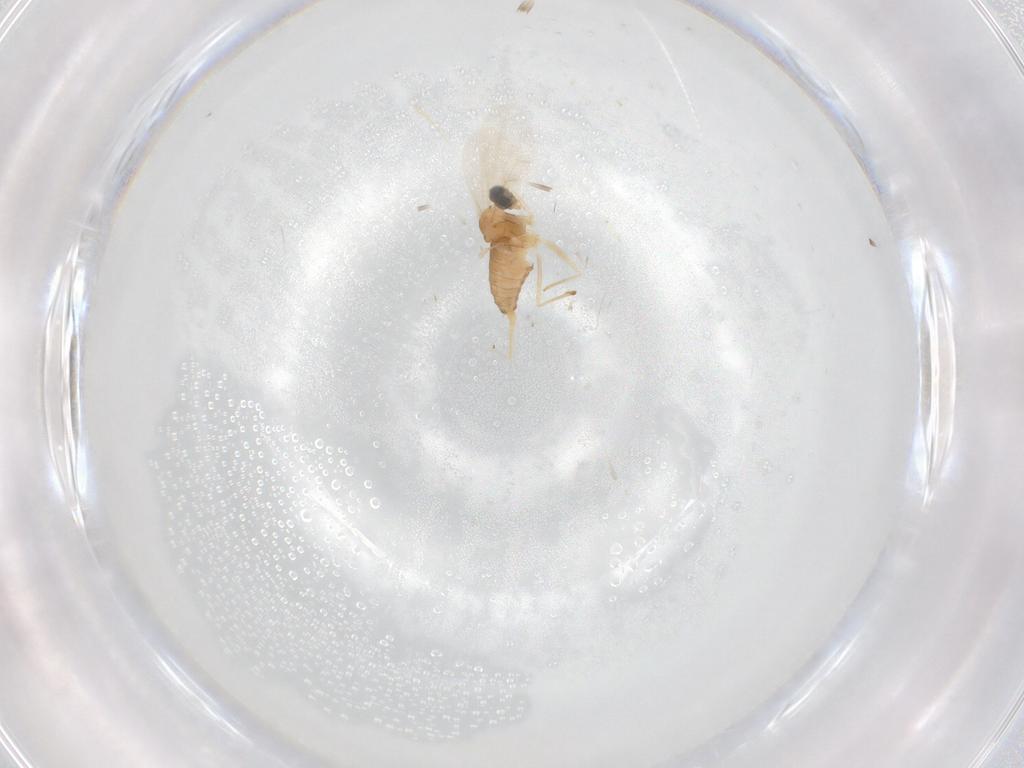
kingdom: Animalia
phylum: Arthropoda
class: Insecta
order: Diptera
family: Cecidomyiidae
